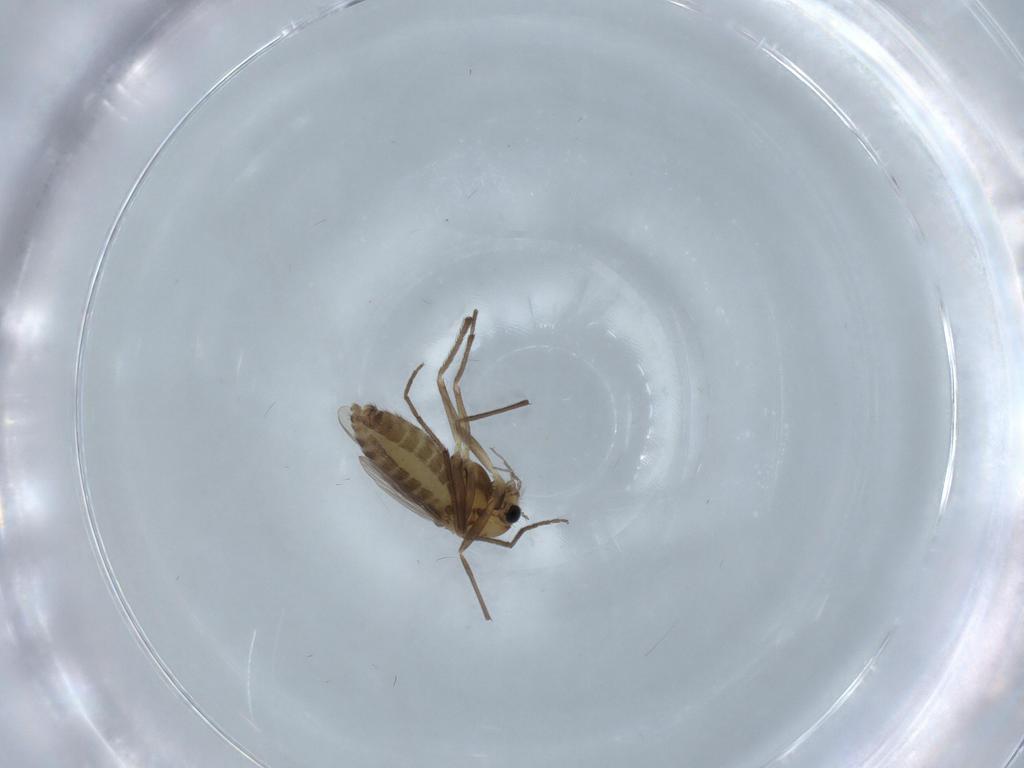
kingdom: Animalia
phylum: Arthropoda
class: Insecta
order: Diptera
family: Chironomidae
